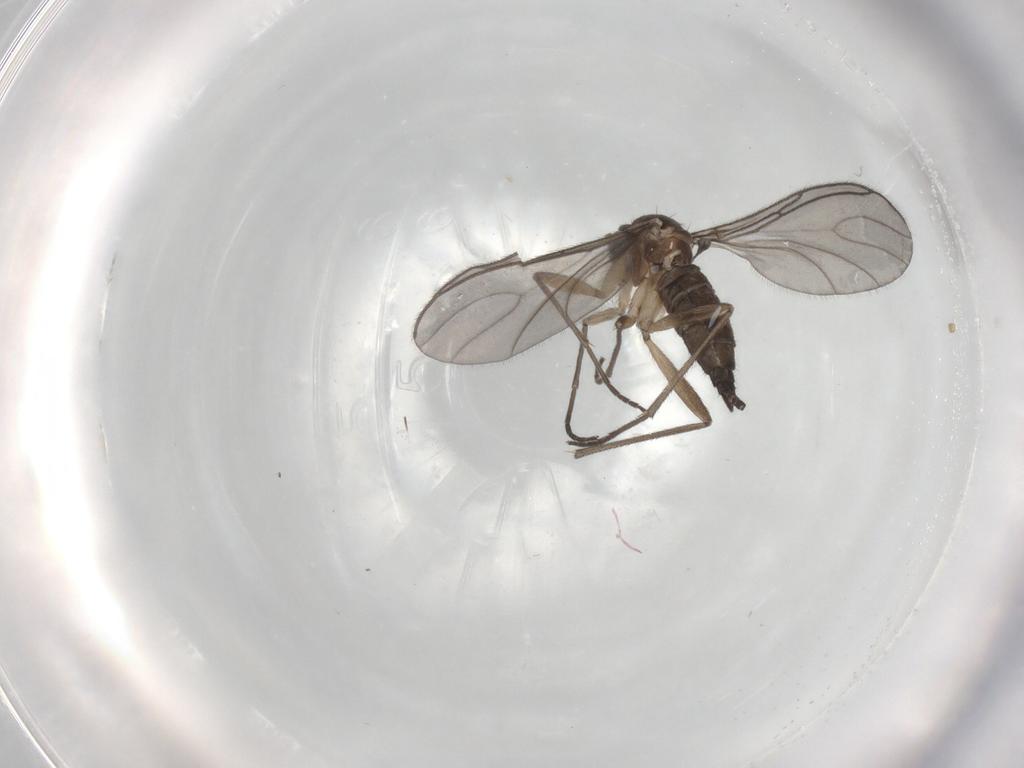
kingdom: Animalia
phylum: Arthropoda
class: Insecta
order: Diptera
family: Sciaridae
